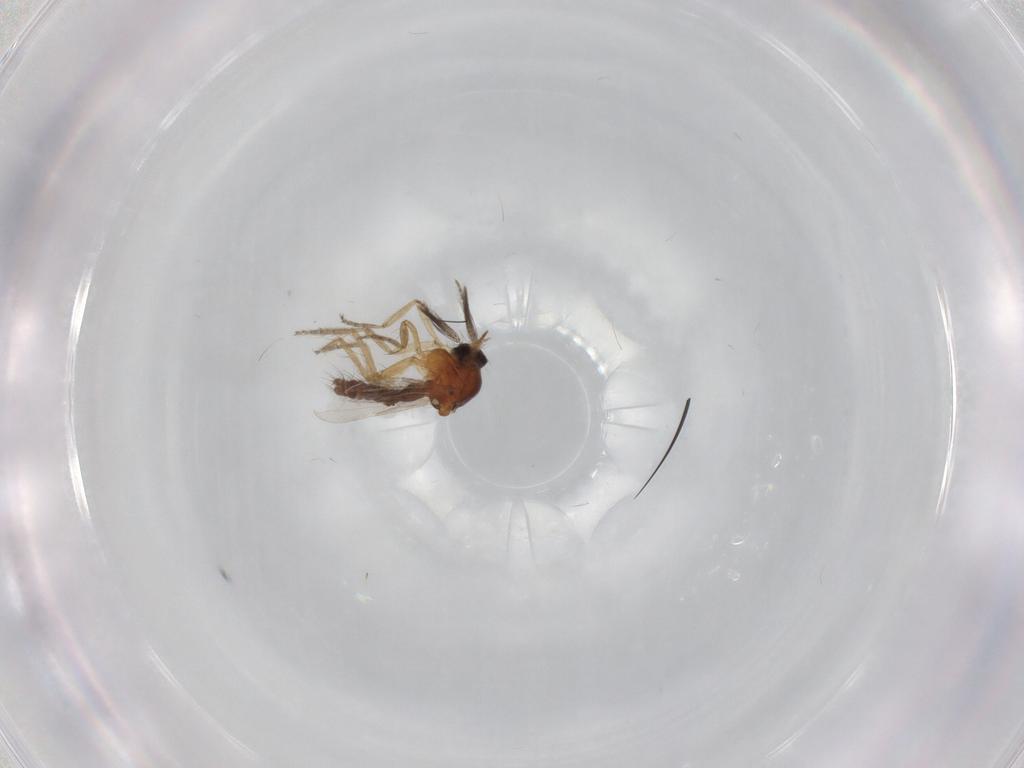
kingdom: Animalia
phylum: Arthropoda
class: Insecta
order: Diptera
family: Ceratopogonidae
